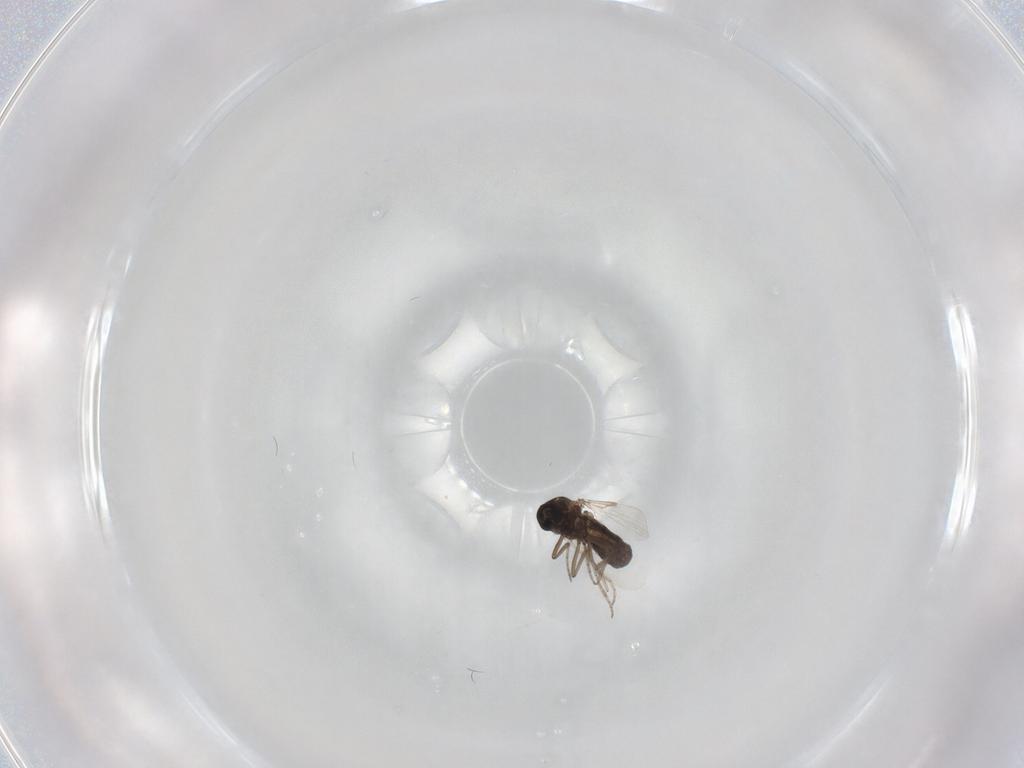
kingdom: Animalia
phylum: Arthropoda
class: Insecta
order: Diptera
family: Ceratopogonidae
